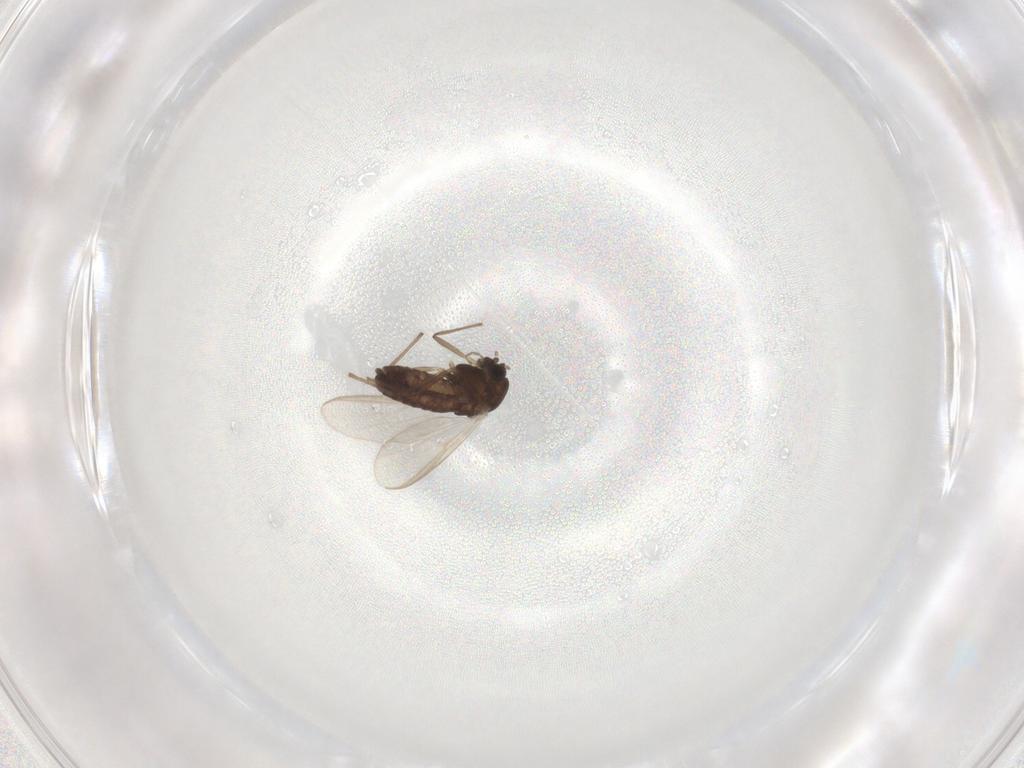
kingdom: Animalia
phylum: Arthropoda
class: Insecta
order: Diptera
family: Chironomidae
